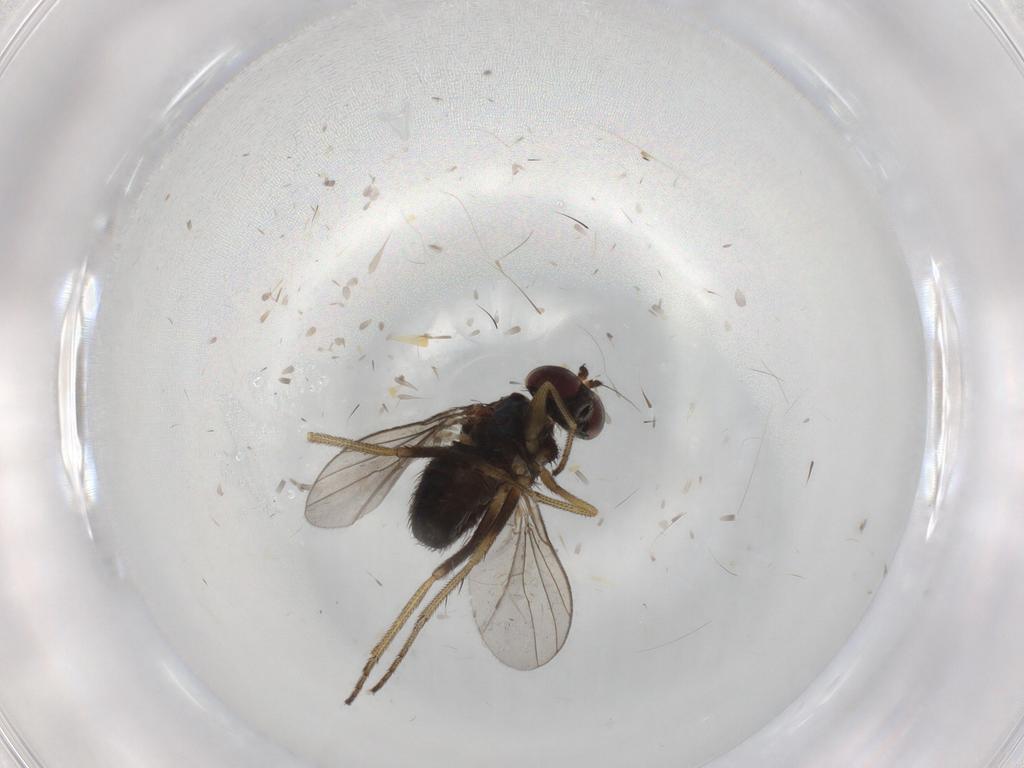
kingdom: Animalia
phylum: Arthropoda
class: Insecta
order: Diptera
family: Dolichopodidae
